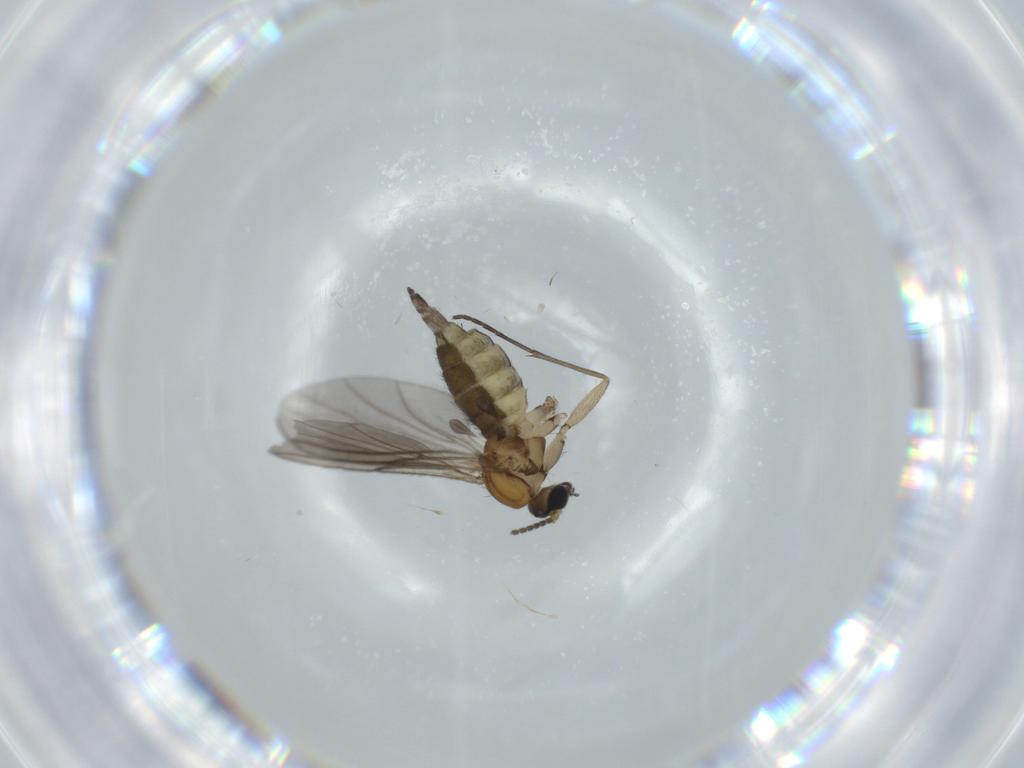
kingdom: Animalia
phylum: Arthropoda
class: Insecta
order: Diptera
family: Sciaridae
